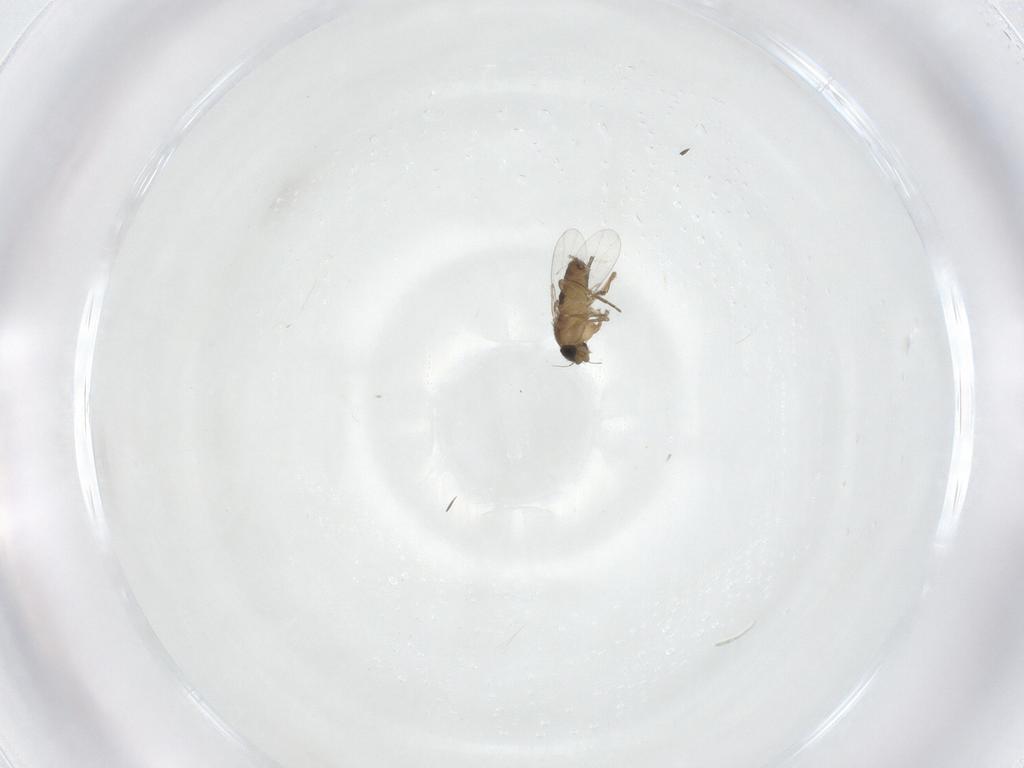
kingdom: Animalia
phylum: Arthropoda
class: Insecta
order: Diptera
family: Phoridae
